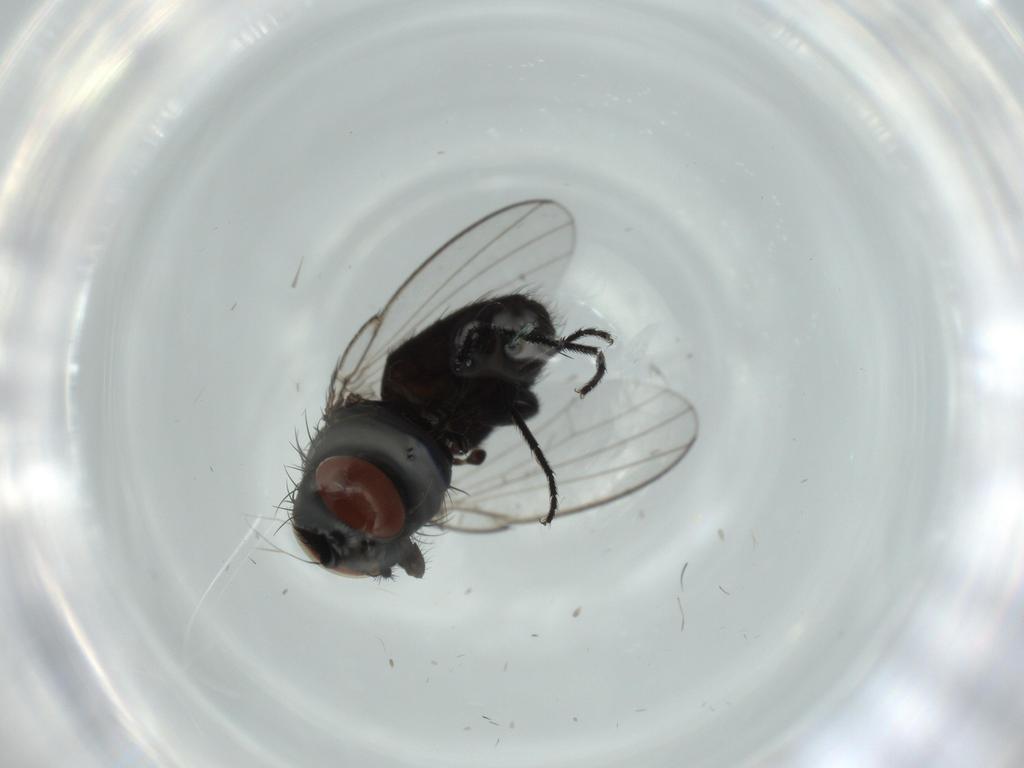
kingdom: Animalia
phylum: Arthropoda
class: Insecta
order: Diptera
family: Milichiidae
